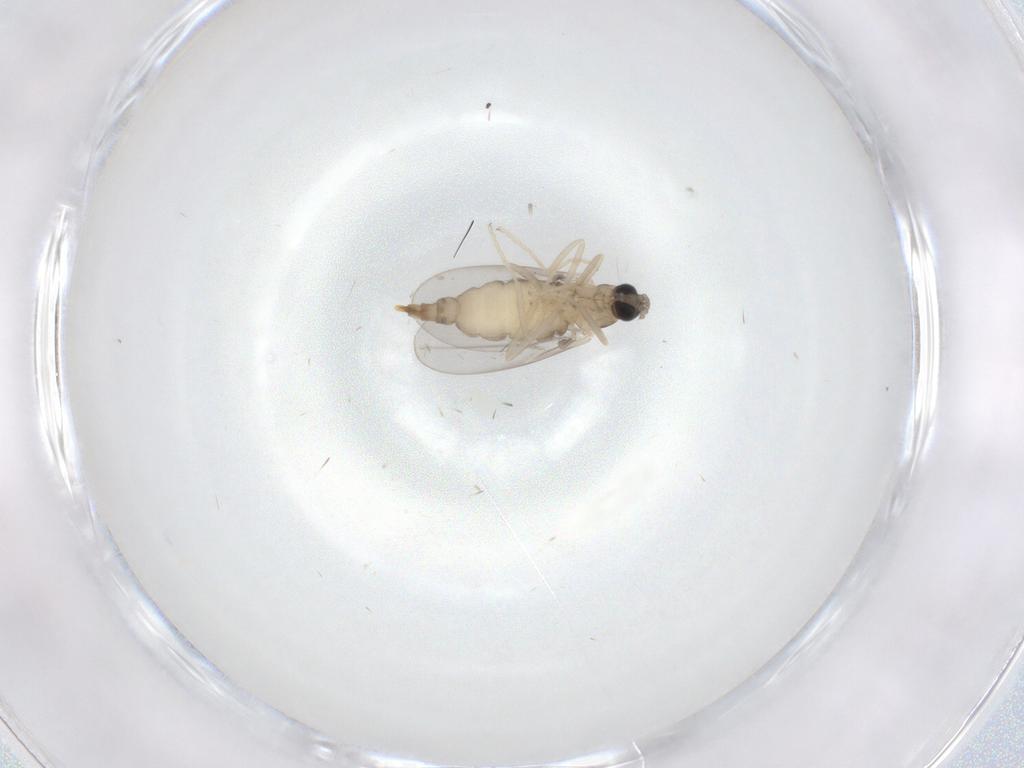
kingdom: Animalia
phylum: Arthropoda
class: Insecta
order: Diptera
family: Cecidomyiidae
